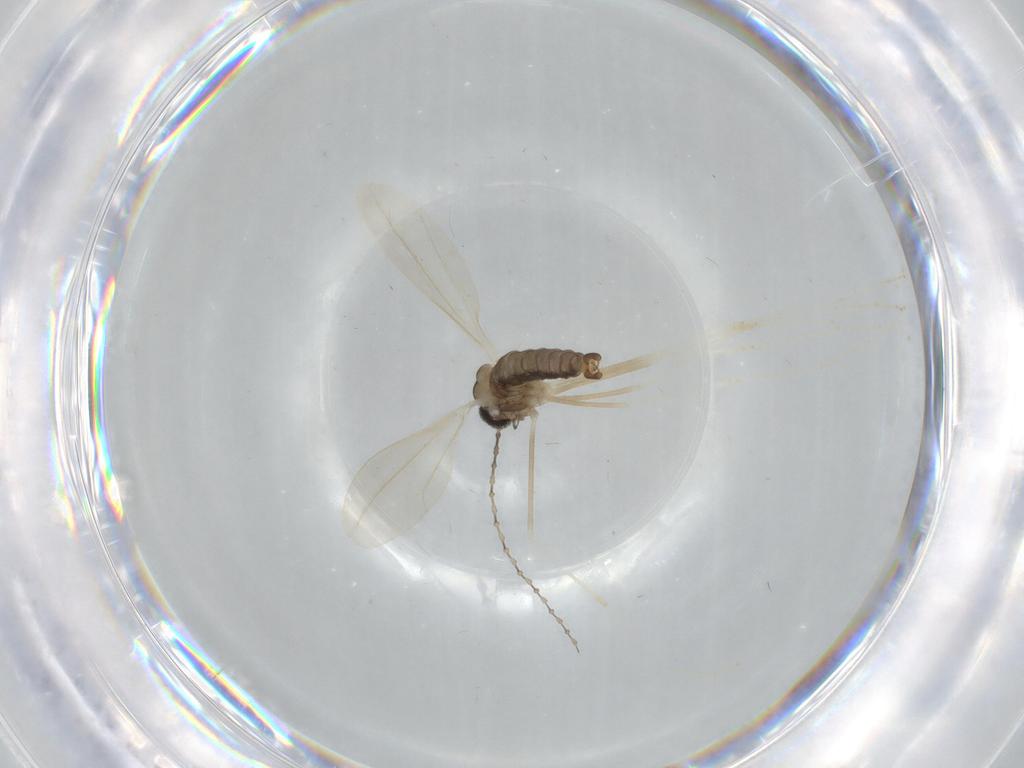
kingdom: Animalia
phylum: Arthropoda
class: Insecta
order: Diptera
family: Cecidomyiidae
